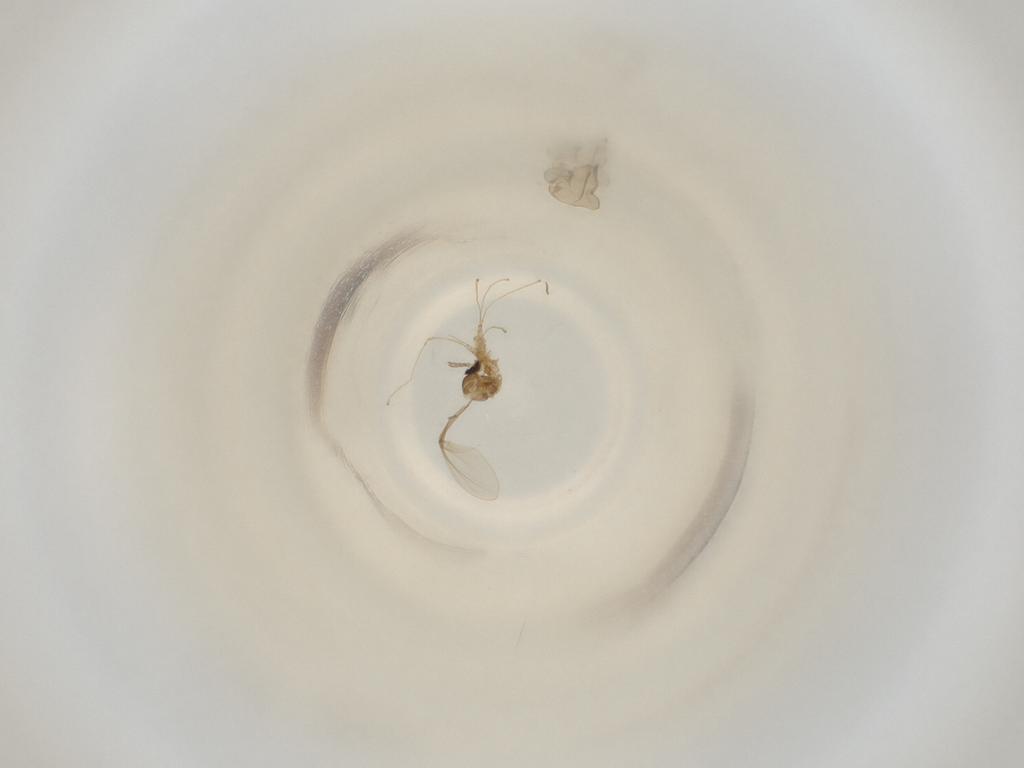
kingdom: Animalia
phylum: Arthropoda
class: Insecta
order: Diptera
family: Cecidomyiidae
